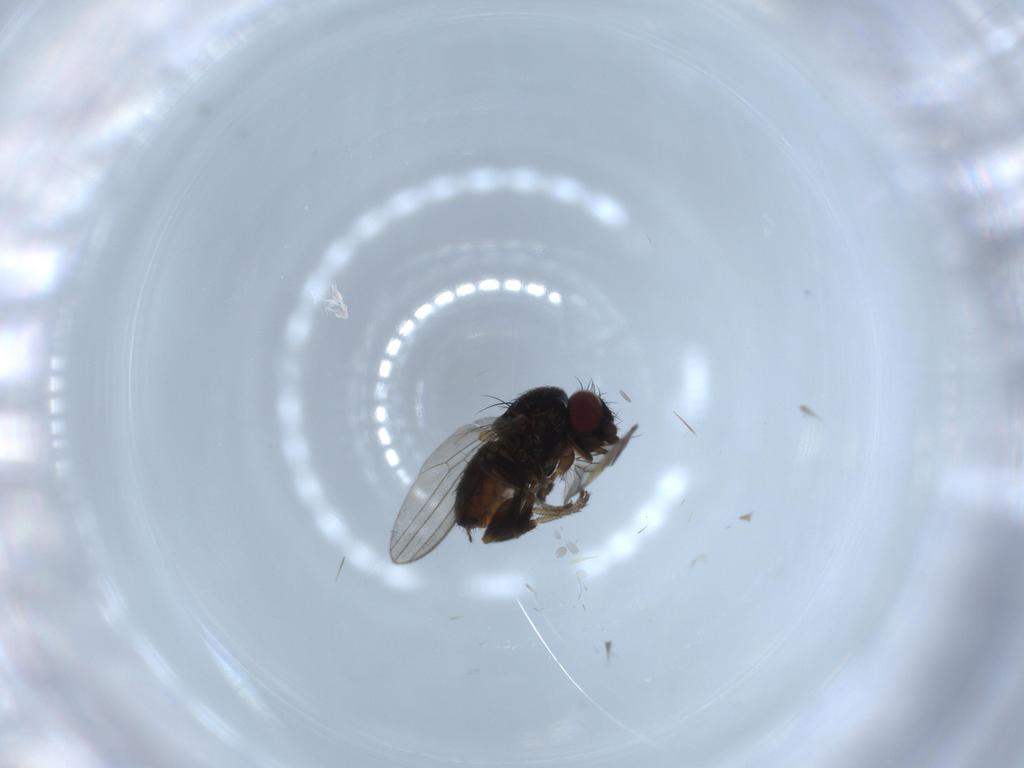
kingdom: Animalia
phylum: Arthropoda
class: Insecta
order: Diptera
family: Milichiidae
